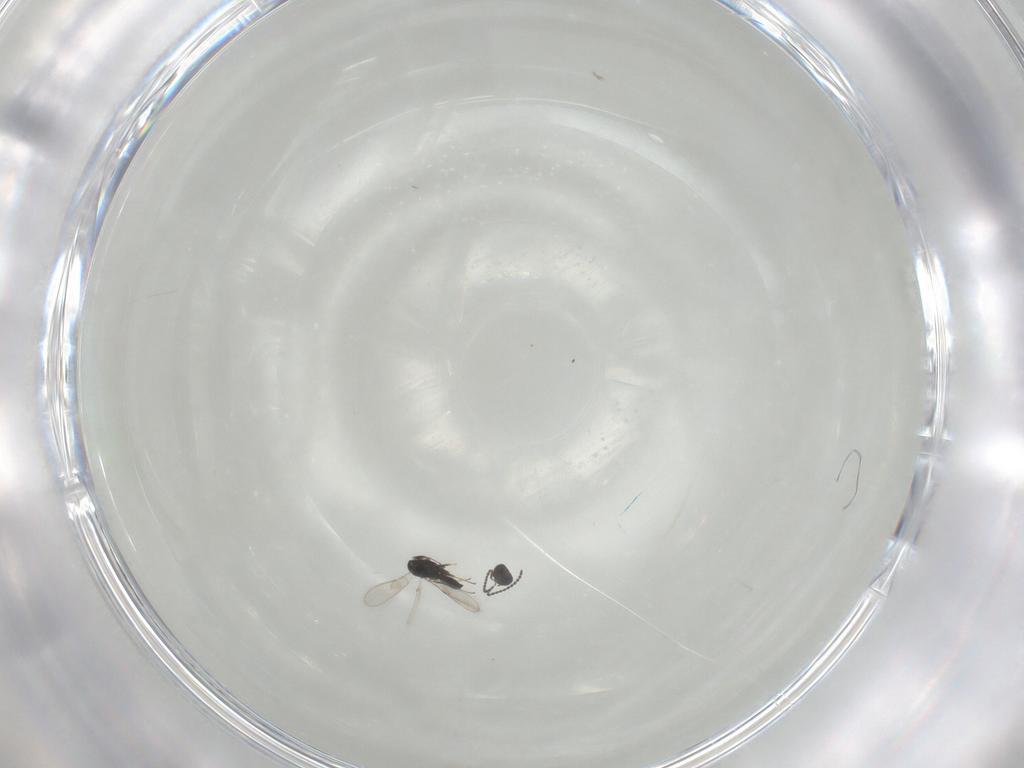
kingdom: Animalia
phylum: Arthropoda
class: Insecta
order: Hymenoptera
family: Scelionidae
